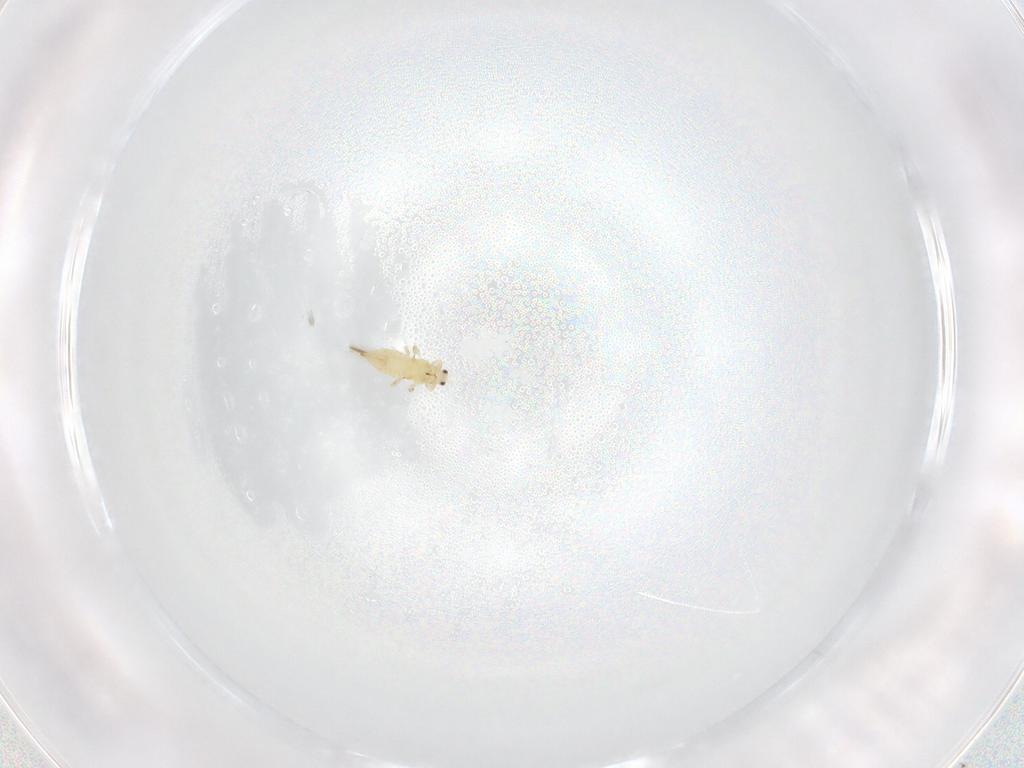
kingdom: Animalia
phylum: Arthropoda
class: Insecta
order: Thysanoptera
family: Thripidae
